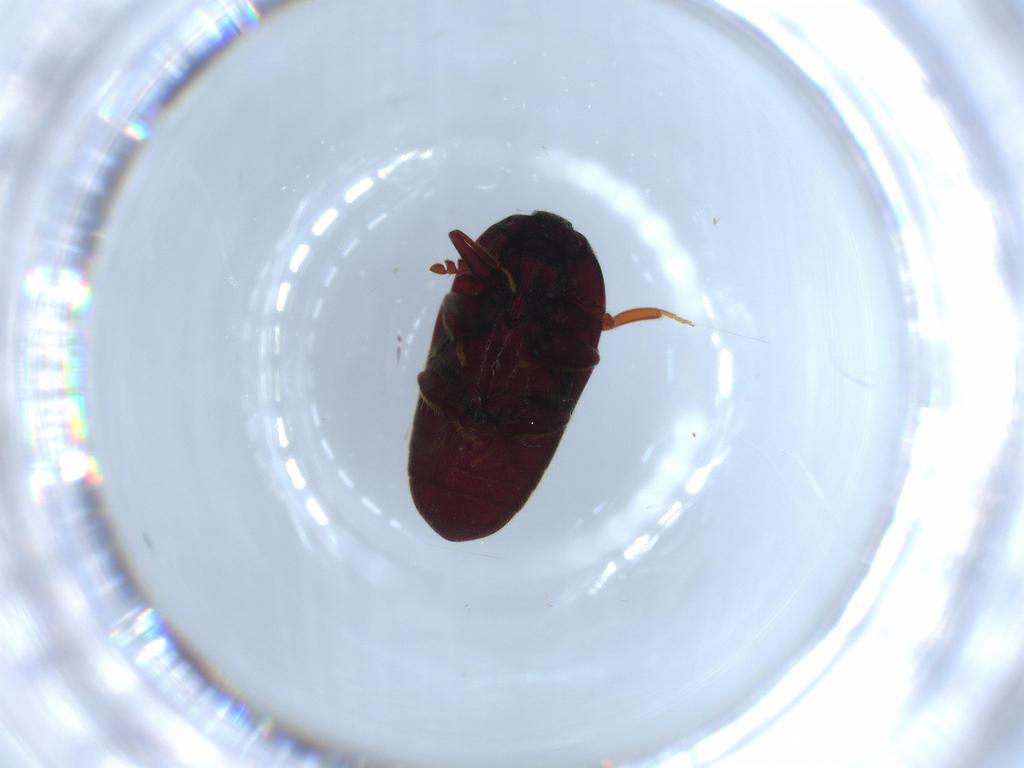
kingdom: Animalia
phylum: Arthropoda
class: Insecta
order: Coleoptera
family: Throscidae
